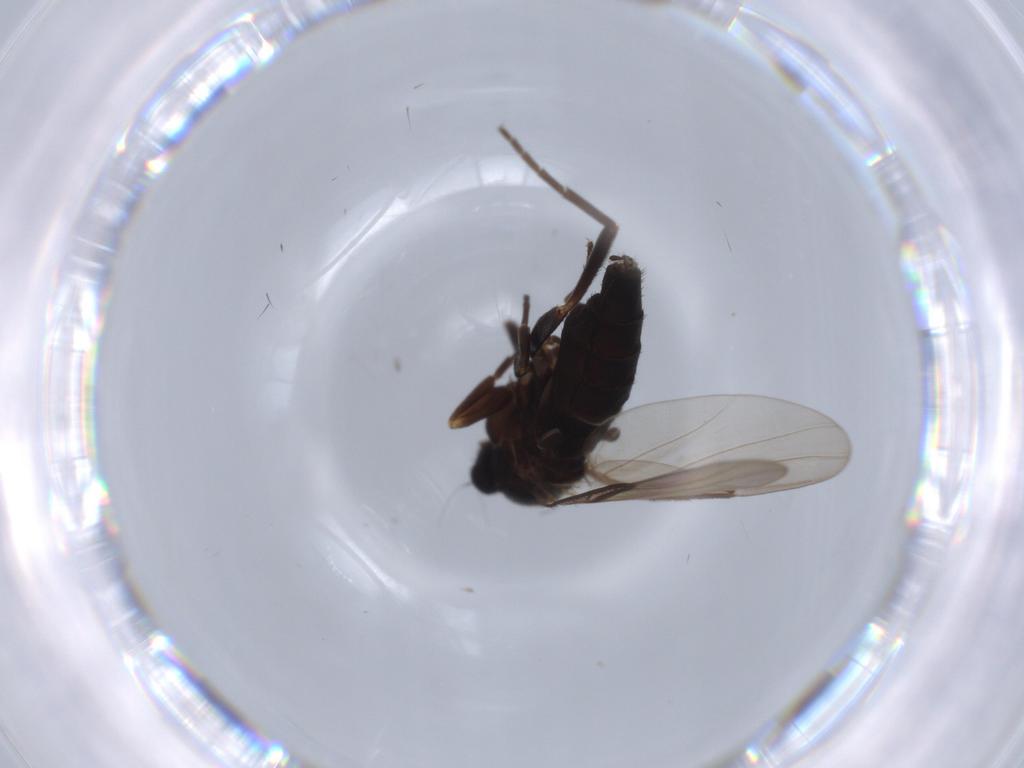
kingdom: Animalia
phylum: Arthropoda
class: Insecta
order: Diptera
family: Phoridae
